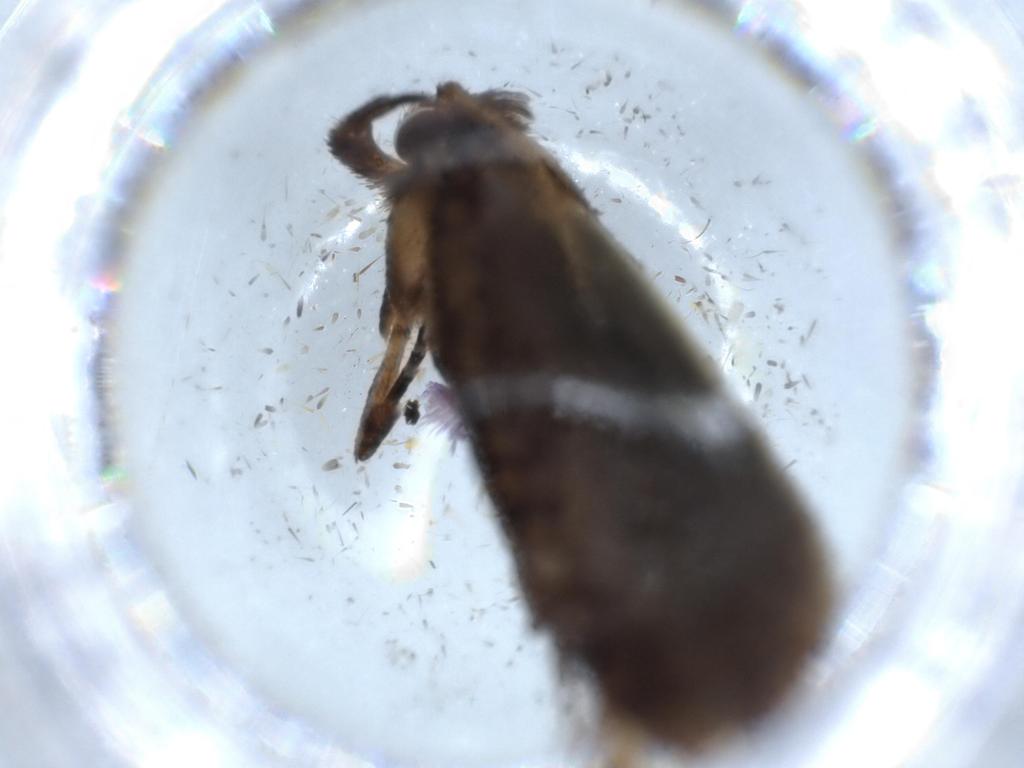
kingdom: Animalia
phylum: Arthropoda
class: Insecta
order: Lepidoptera
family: Tineidae
